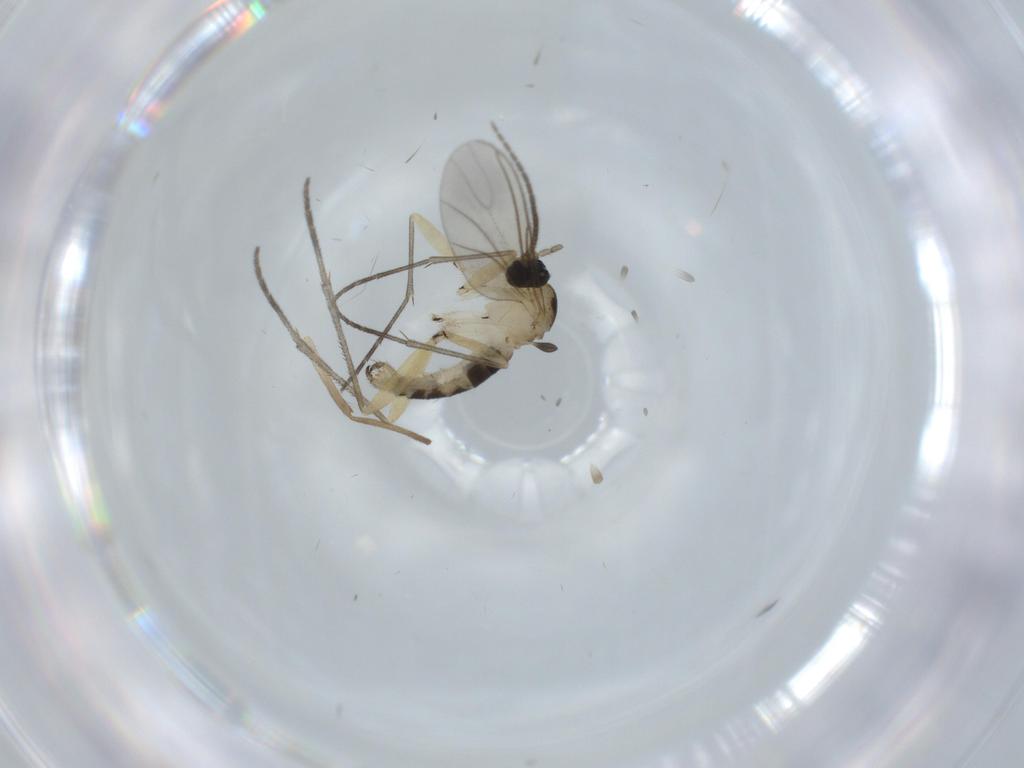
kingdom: Animalia
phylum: Arthropoda
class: Insecta
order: Diptera
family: Sciaridae
